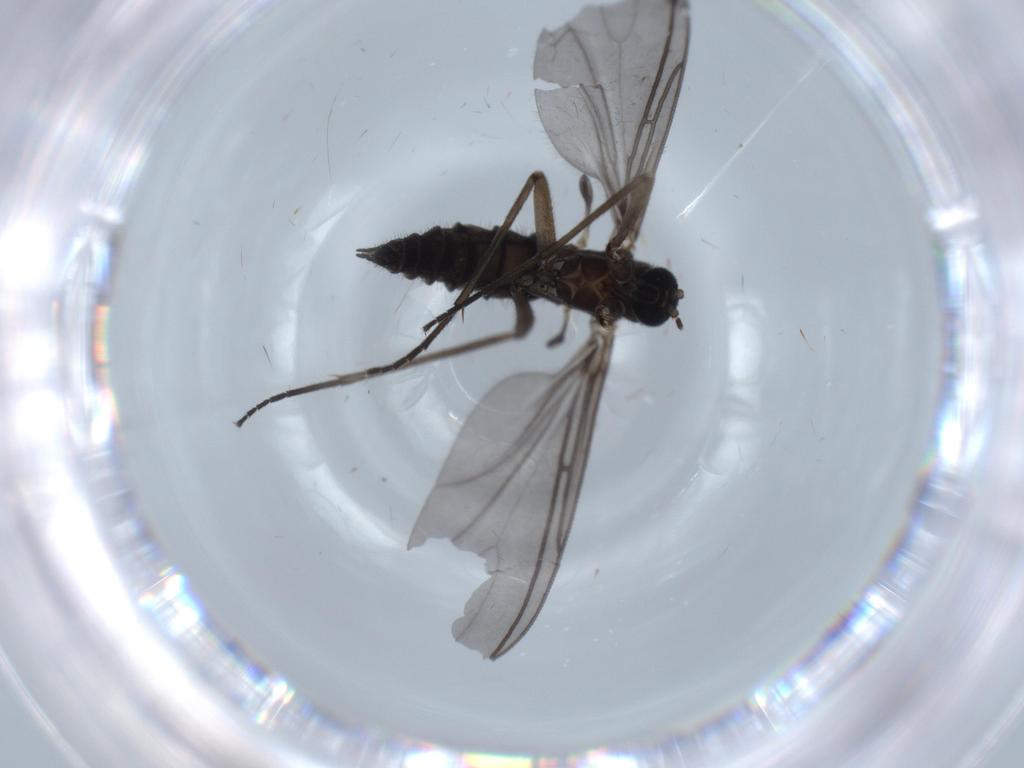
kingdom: Animalia
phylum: Arthropoda
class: Insecta
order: Diptera
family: Sciaridae
